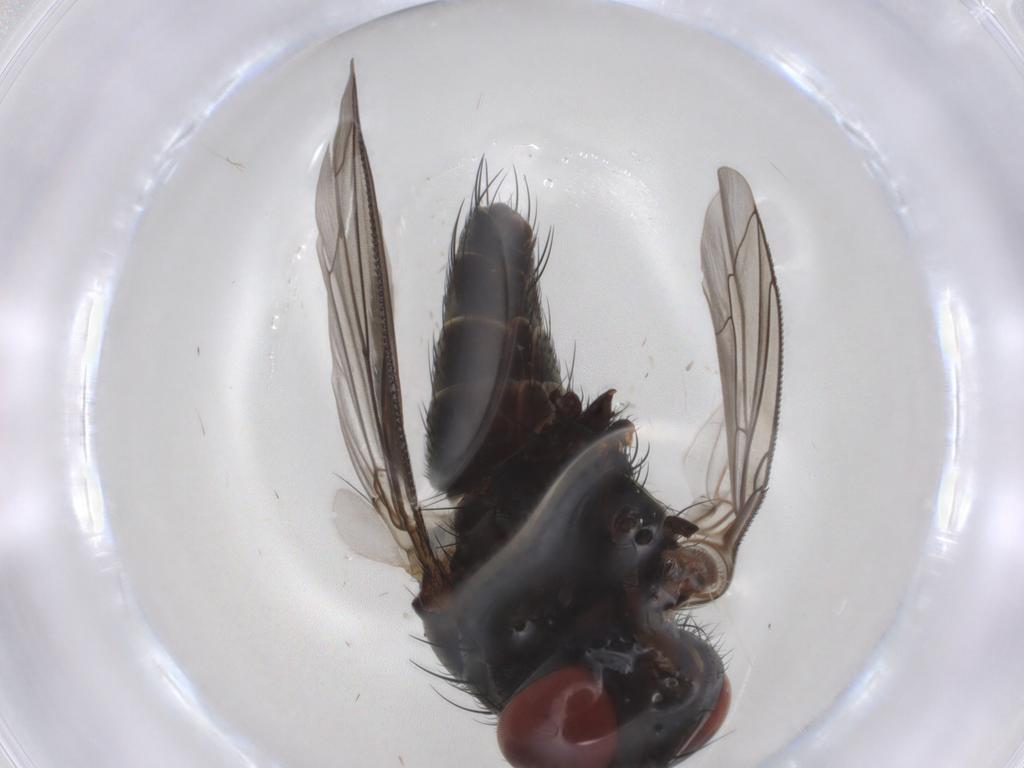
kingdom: Animalia
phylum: Arthropoda
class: Insecta
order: Diptera
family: Sarcophagidae
